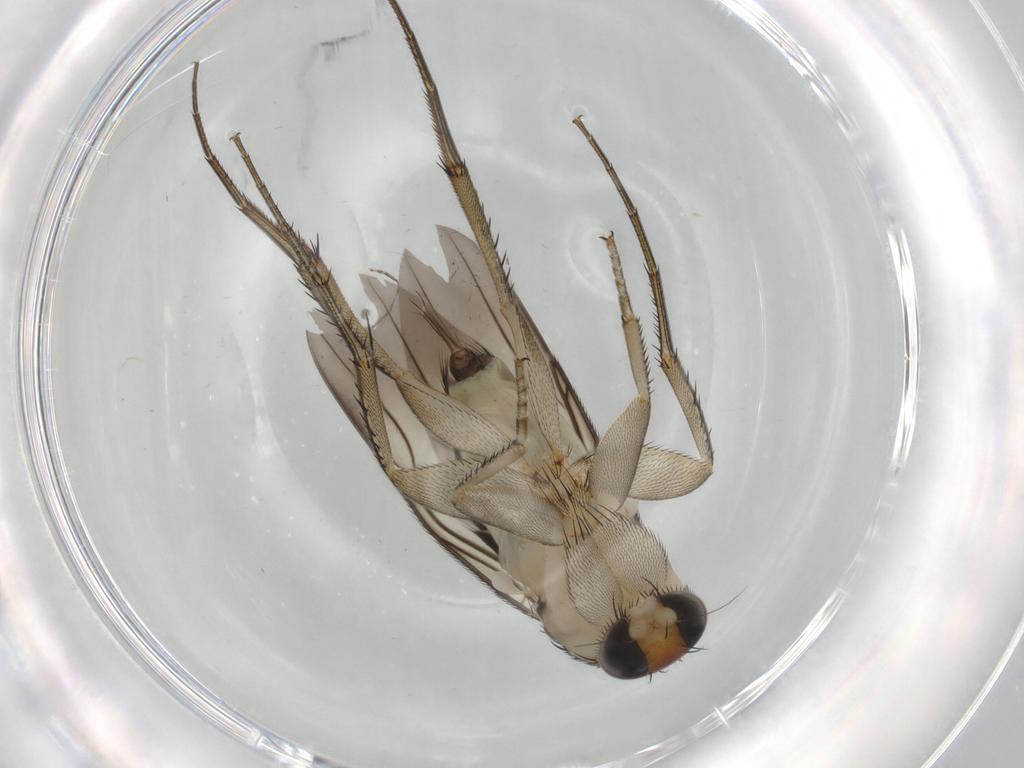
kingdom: Animalia
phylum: Arthropoda
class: Insecta
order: Diptera
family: Phoridae
